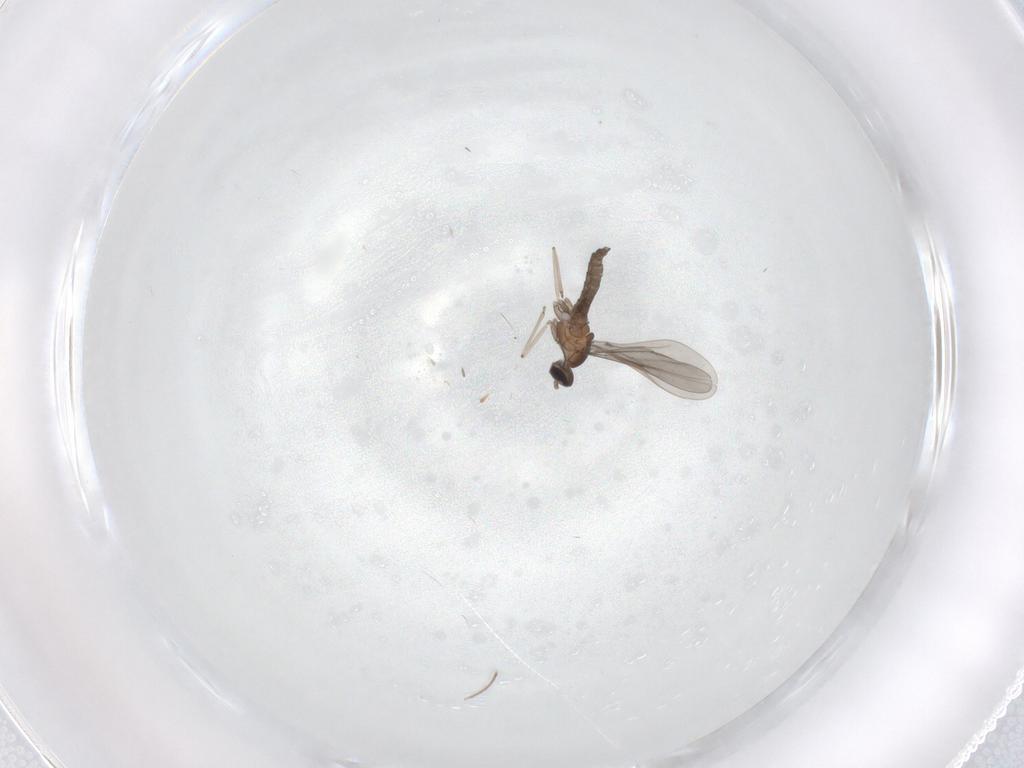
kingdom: Animalia
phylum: Arthropoda
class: Insecta
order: Diptera
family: Cecidomyiidae
